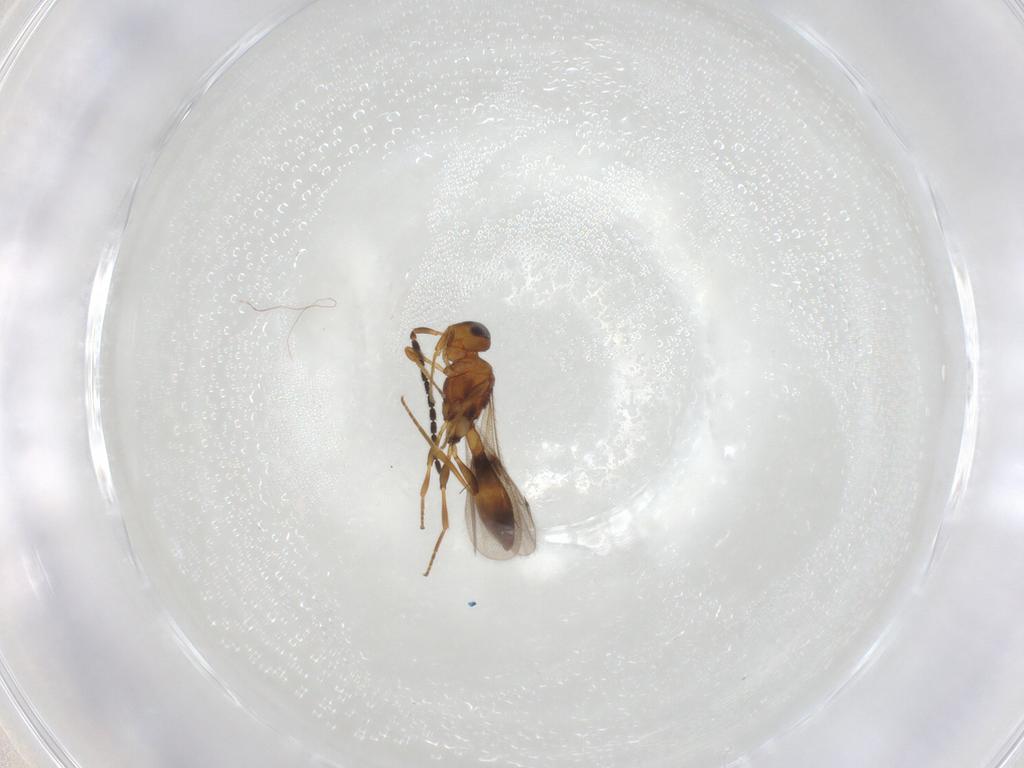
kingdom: Animalia
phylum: Arthropoda
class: Insecta
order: Hymenoptera
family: Scelionidae
